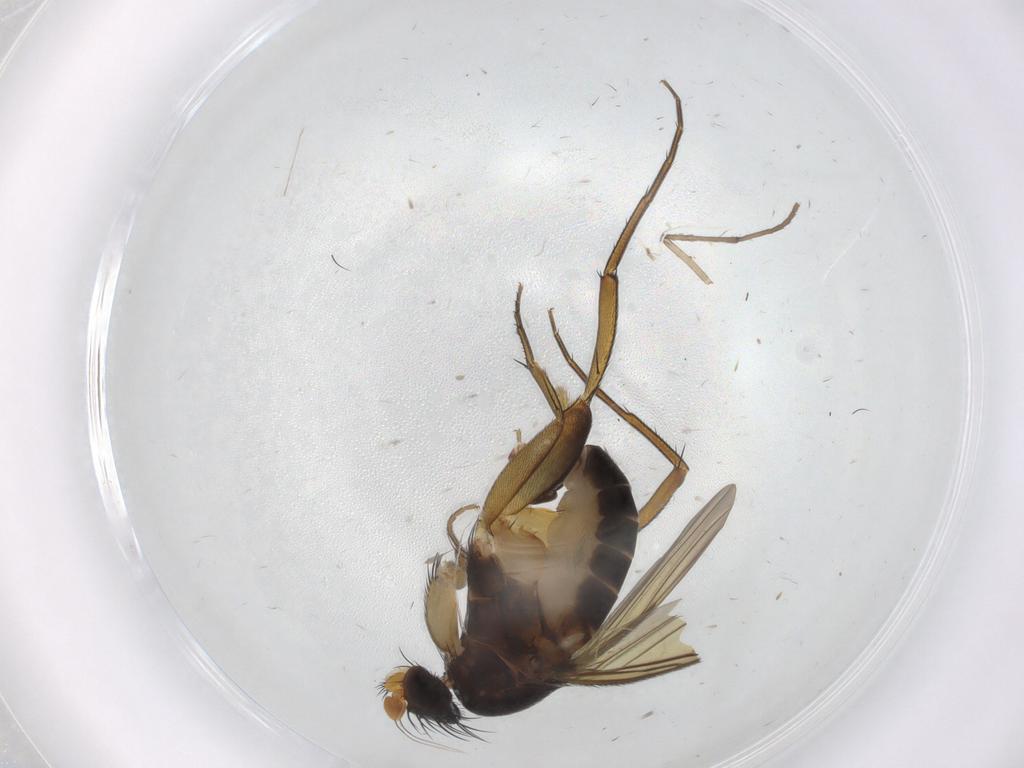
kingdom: Animalia
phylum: Arthropoda
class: Insecta
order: Diptera
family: Phoridae
